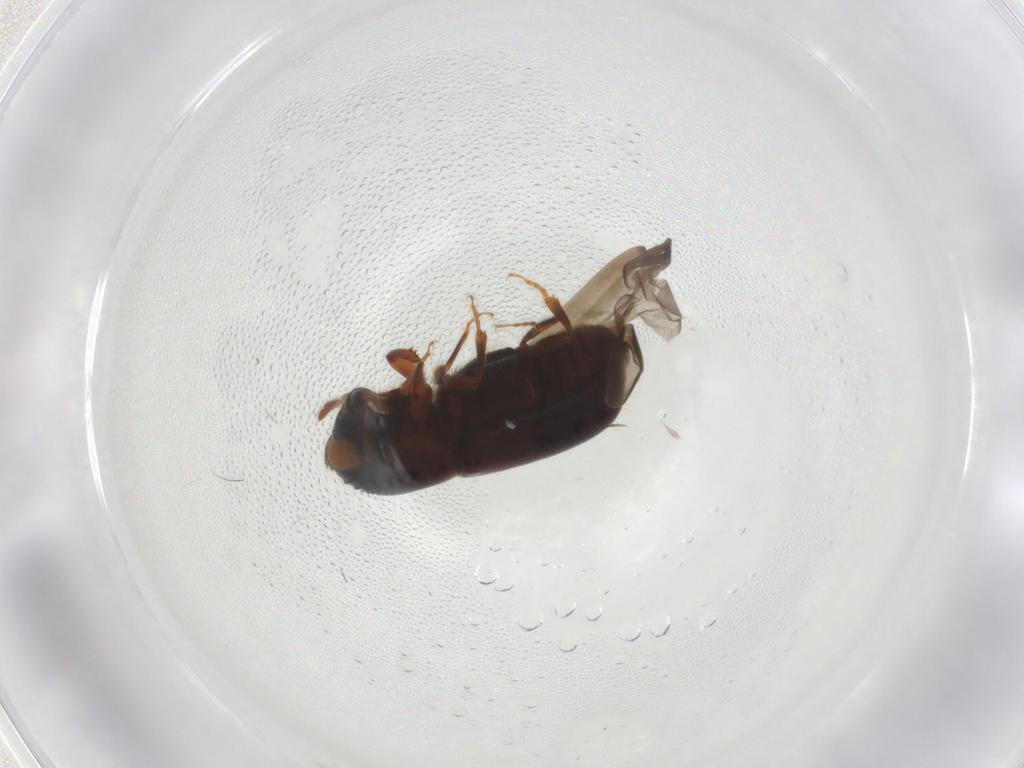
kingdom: Animalia
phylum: Arthropoda
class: Insecta
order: Coleoptera
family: Curculionidae
